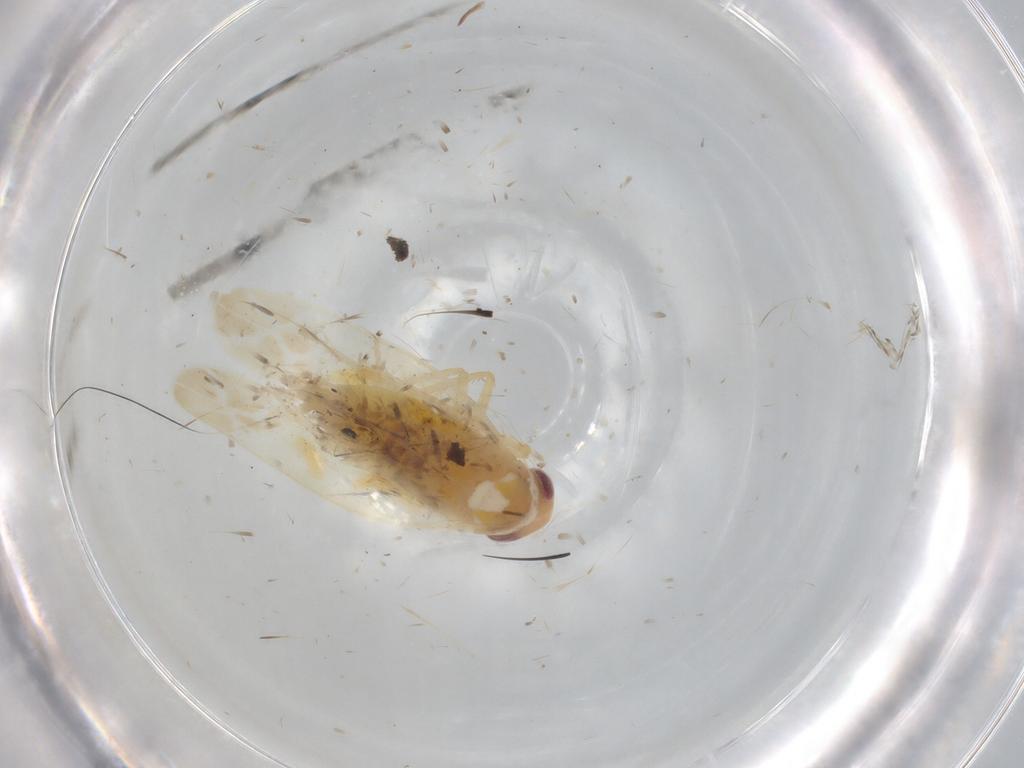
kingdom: Animalia
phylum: Arthropoda
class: Insecta
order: Hemiptera
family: Cicadellidae
